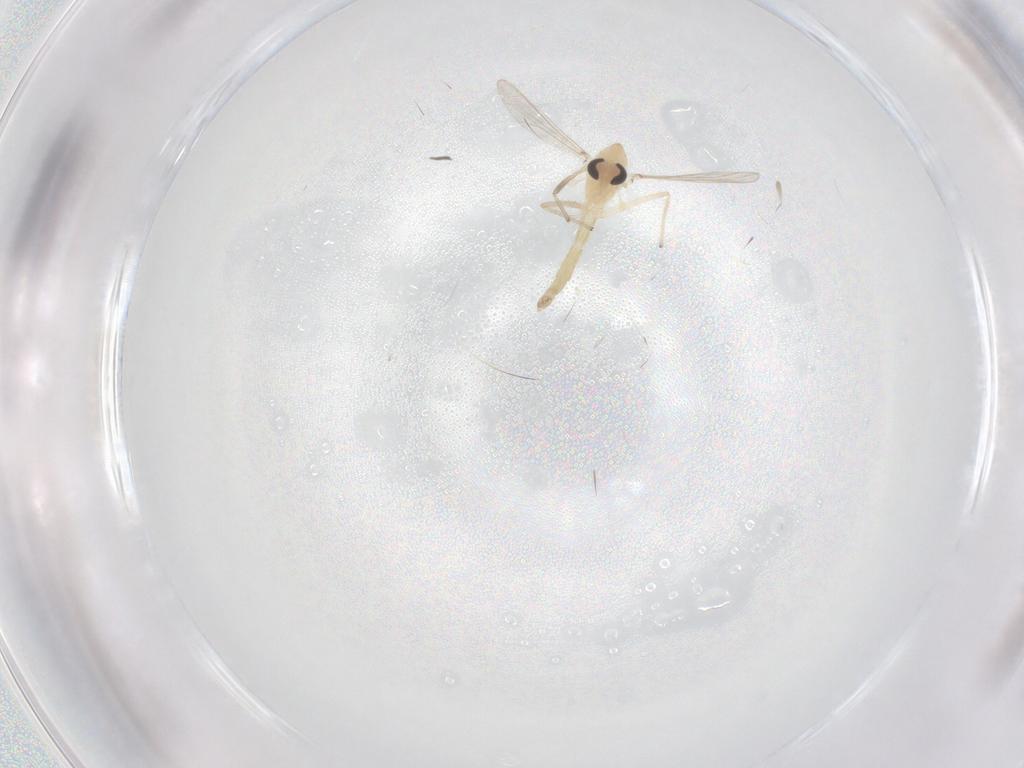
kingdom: Animalia
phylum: Arthropoda
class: Insecta
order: Diptera
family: Chironomidae
